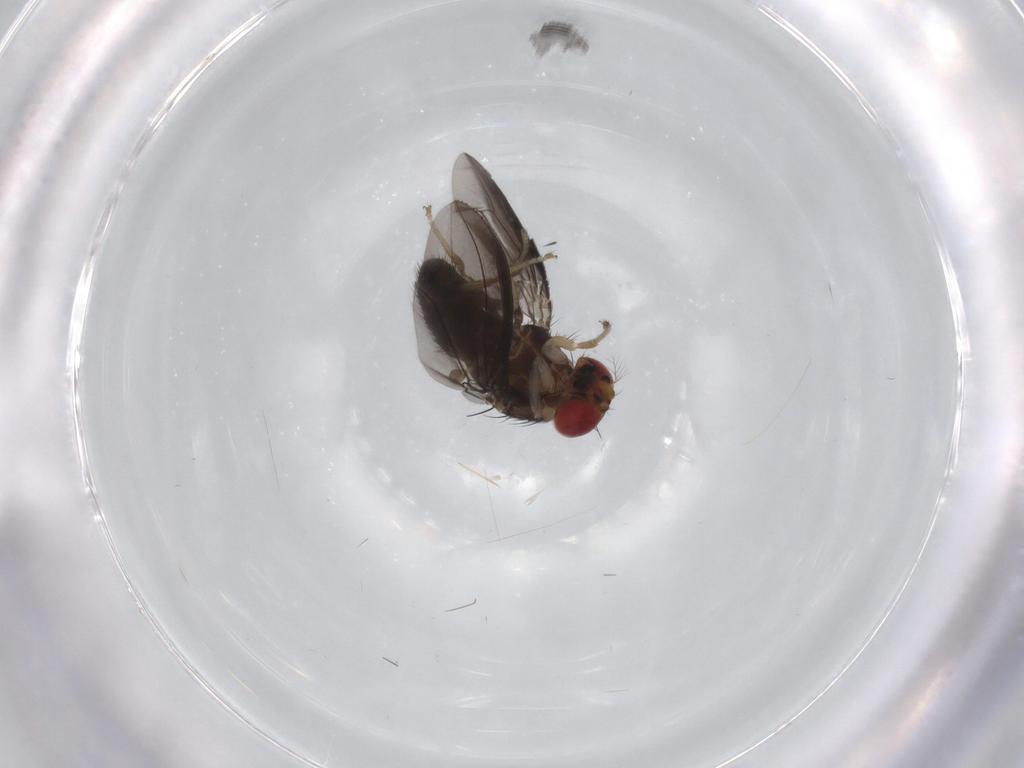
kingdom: Animalia
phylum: Arthropoda
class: Insecta
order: Diptera
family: Drosophilidae
